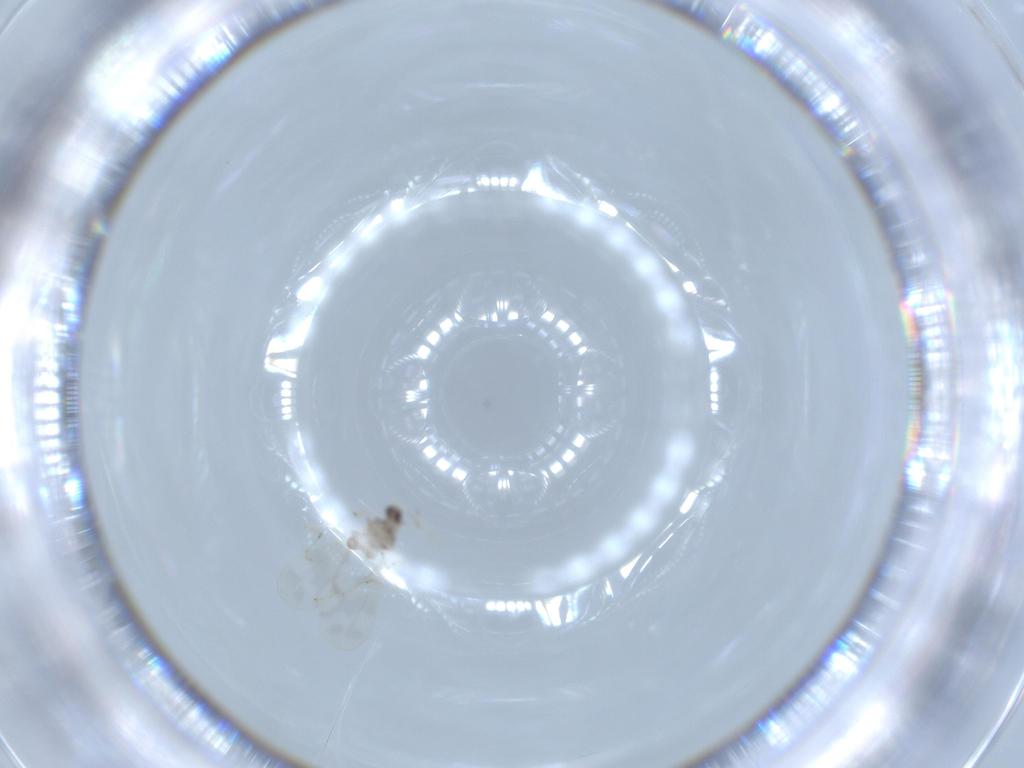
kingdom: Animalia
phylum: Arthropoda
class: Insecta
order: Diptera
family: Cecidomyiidae
